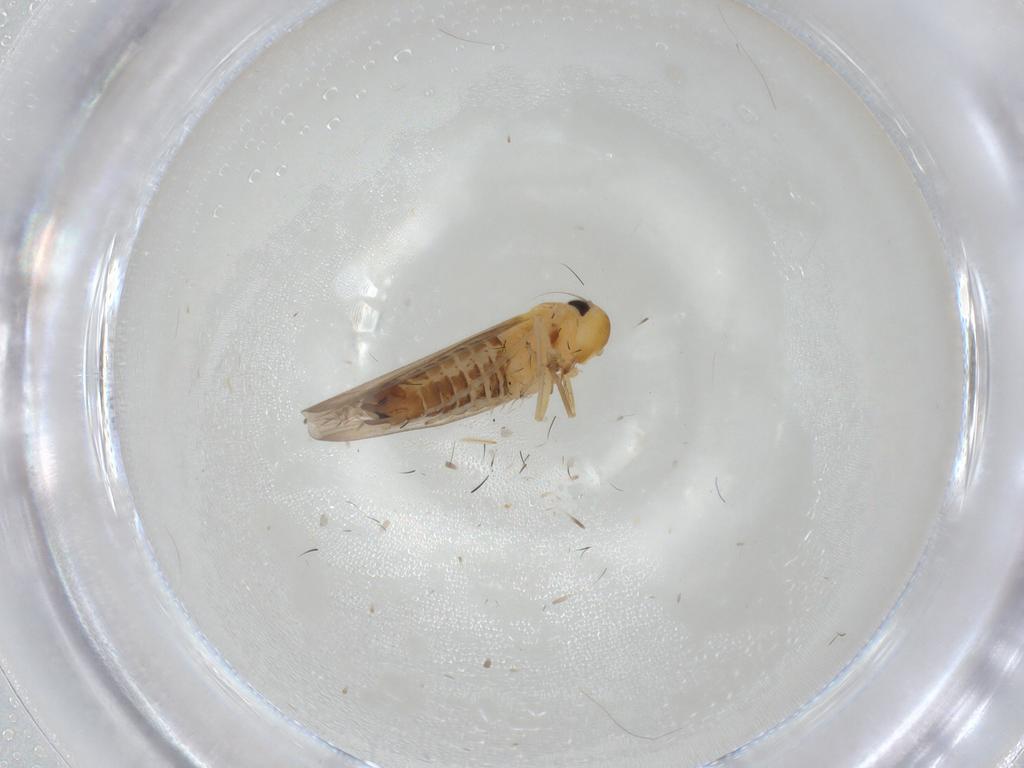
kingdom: Animalia
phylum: Arthropoda
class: Insecta
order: Hemiptera
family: Cicadellidae
